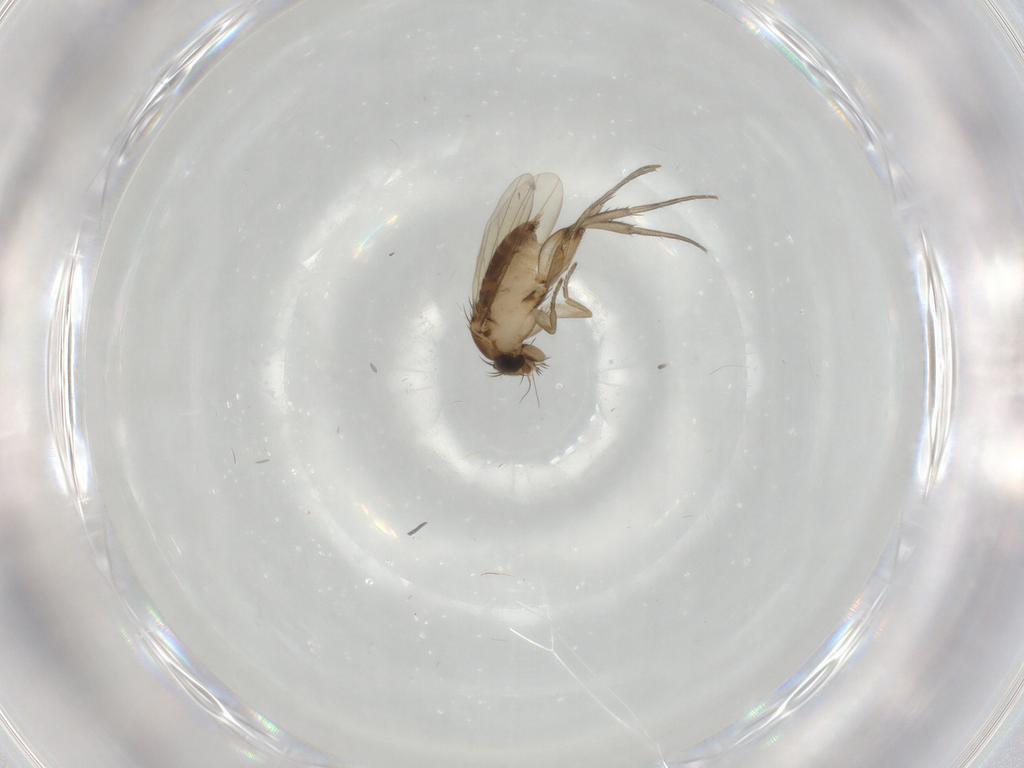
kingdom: Animalia
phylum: Arthropoda
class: Insecta
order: Diptera
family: Phoridae
